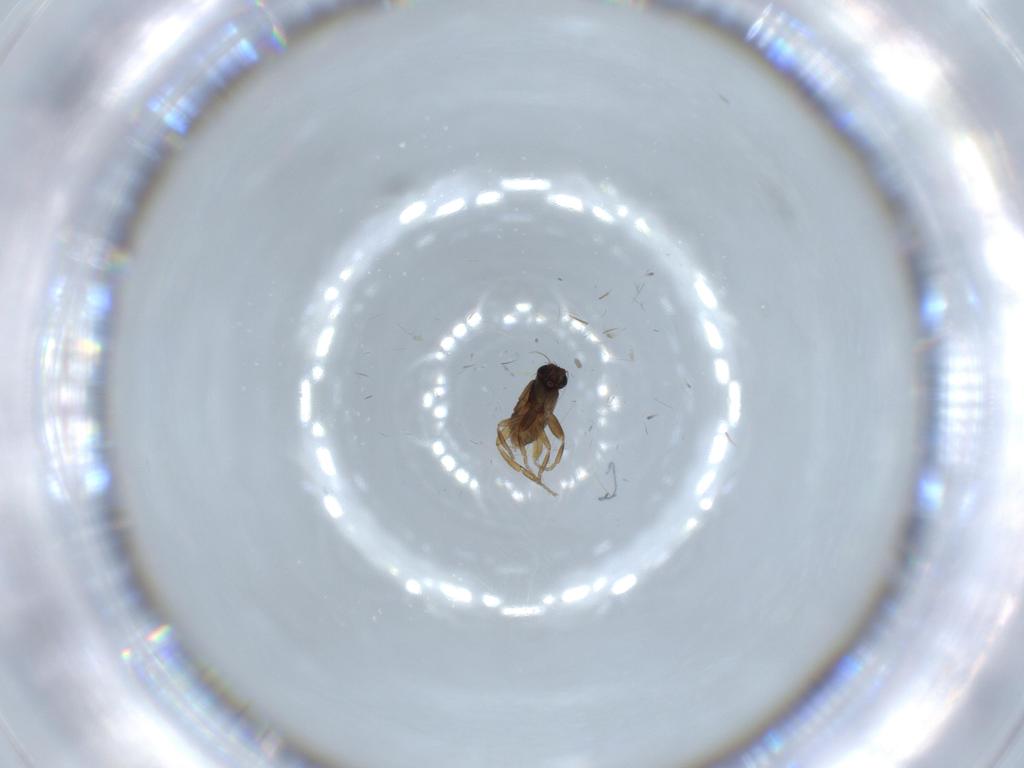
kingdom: Animalia
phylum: Arthropoda
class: Insecta
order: Diptera
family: Phoridae
